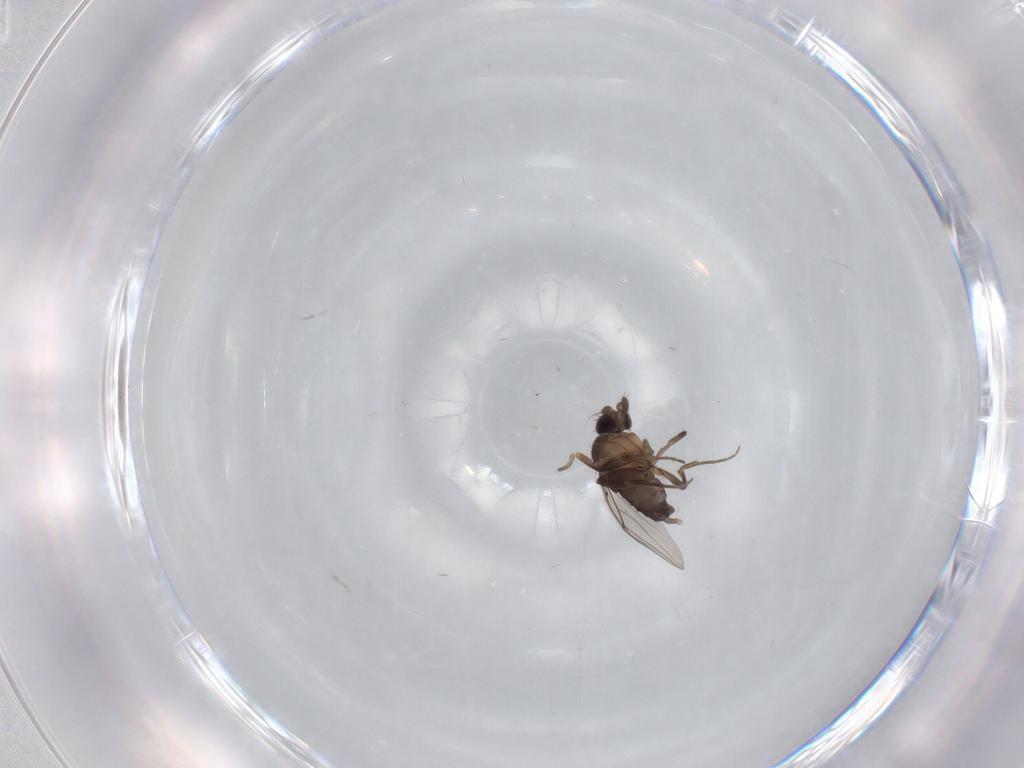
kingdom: Animalia
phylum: Arthropoda
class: Insecta
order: Diptera
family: Phoridae
